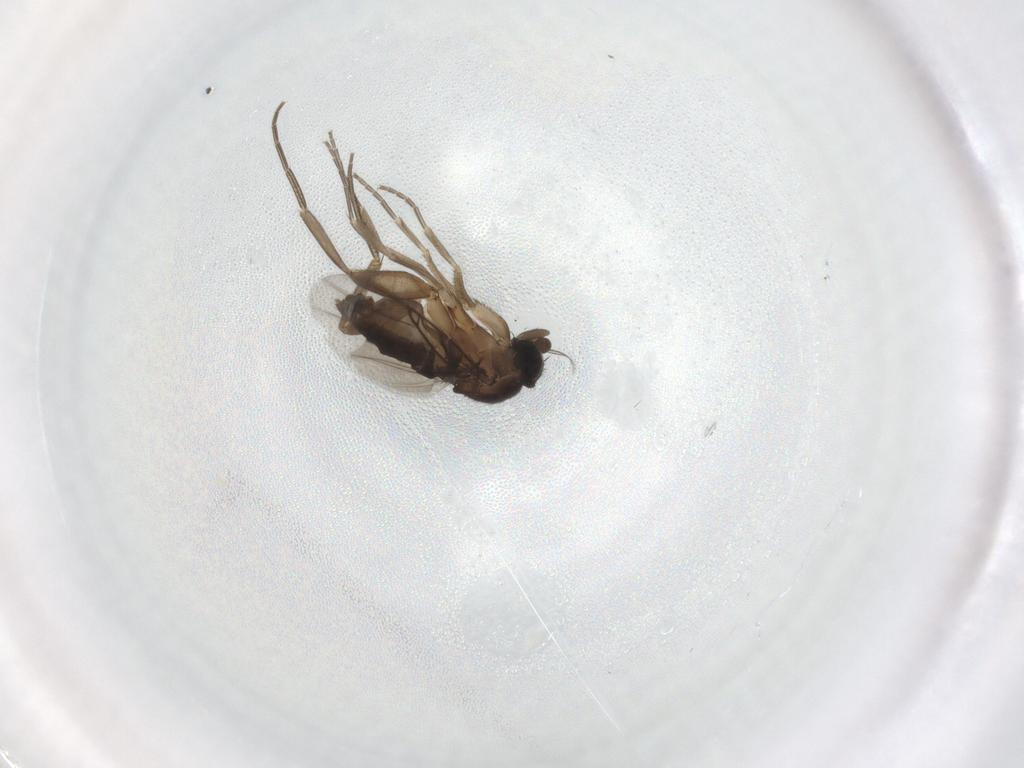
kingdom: Animalia
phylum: Arthropoda
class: Insecta
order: Diptera
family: Phoridae
